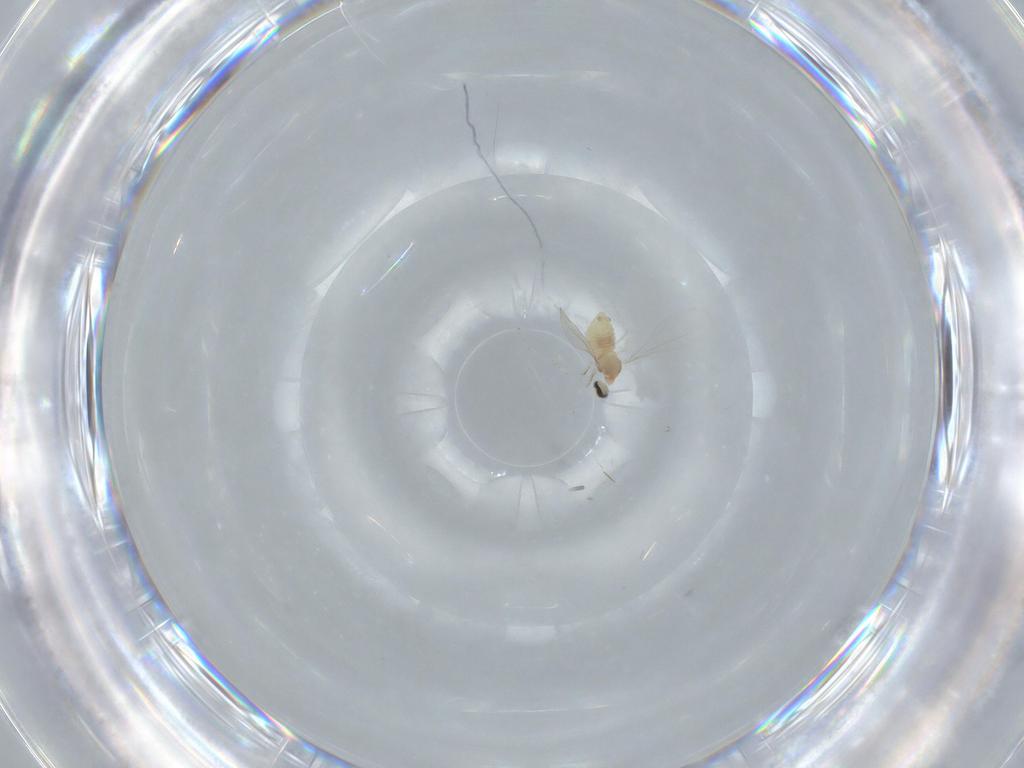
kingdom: Animalia
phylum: Arthropoda
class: Insecta
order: Diptera
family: Cecidomyiidae
